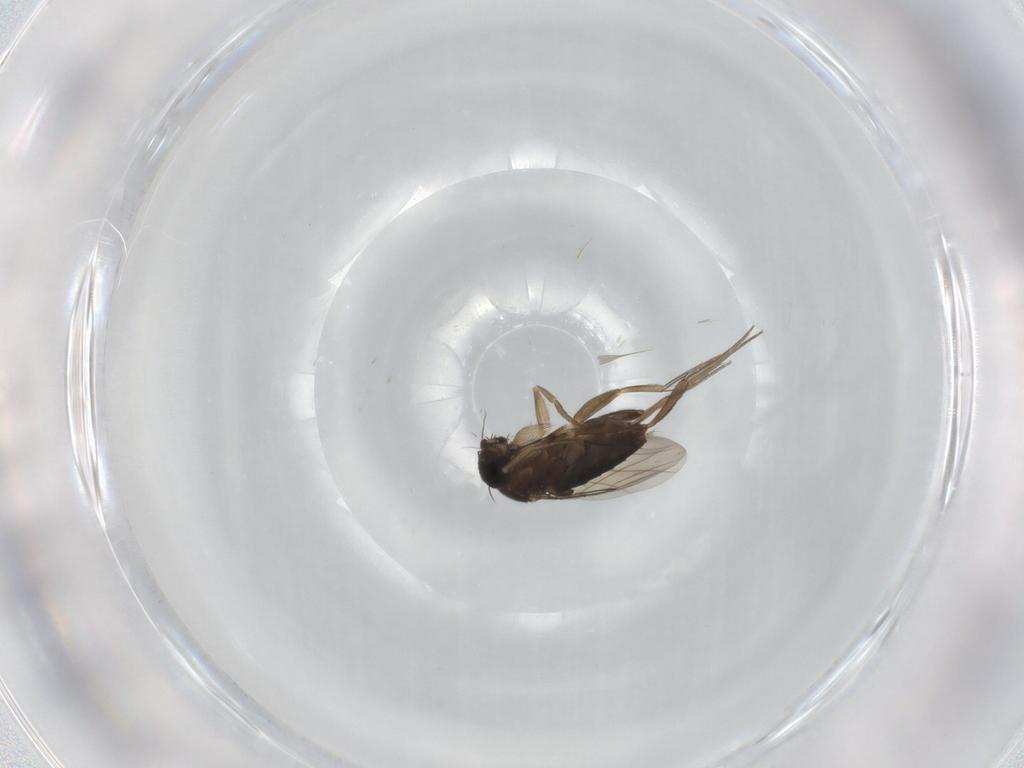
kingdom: Animalia
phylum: Arthropoda
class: Insecta
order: Diptera
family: Phoridae
